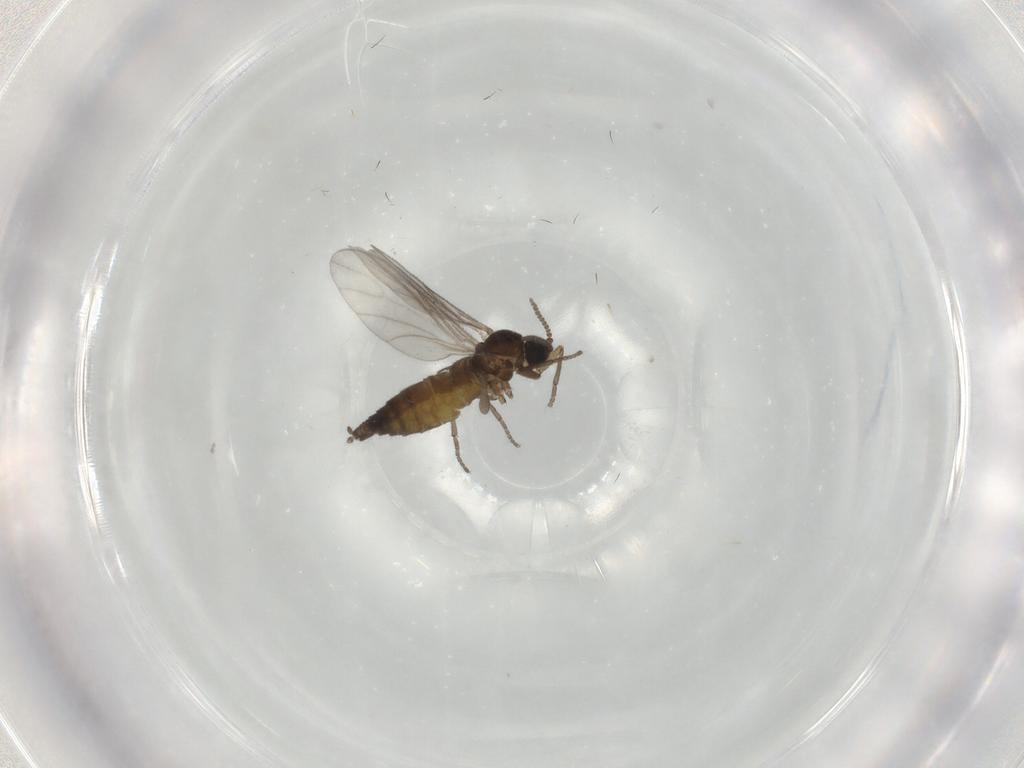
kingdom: Animalia
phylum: Arthropoda
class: Insecta
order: Diptera
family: Sciaridae
